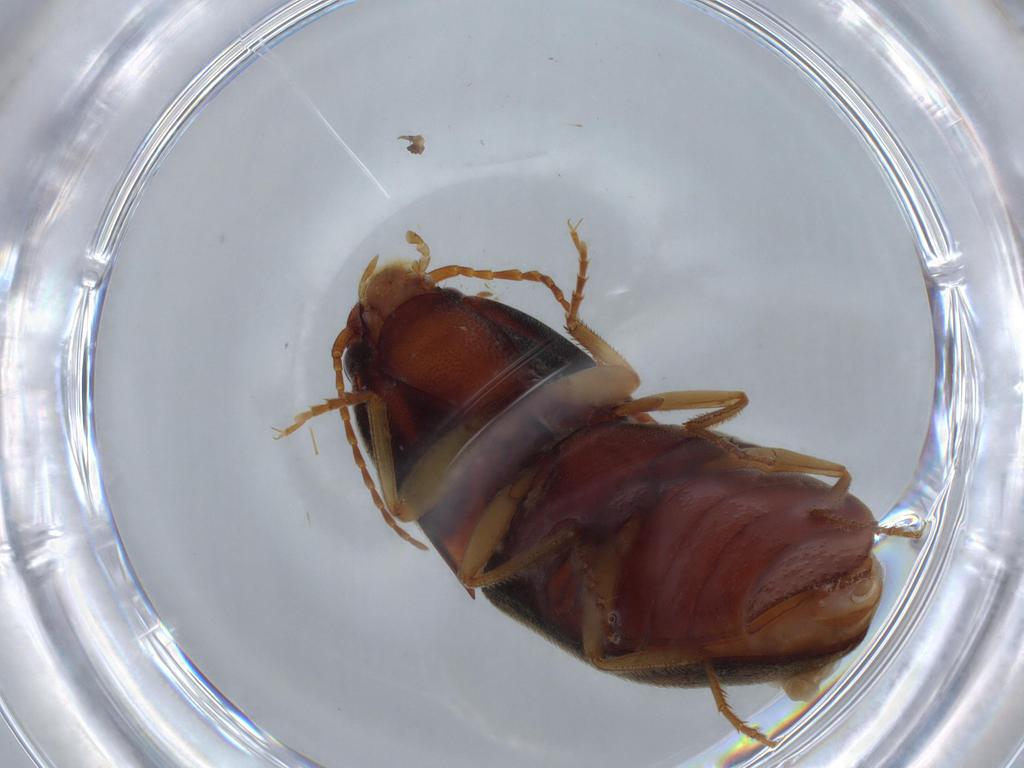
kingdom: Animalia
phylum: Arthropoda
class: Insecta
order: Coleoptera
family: Elateridae
